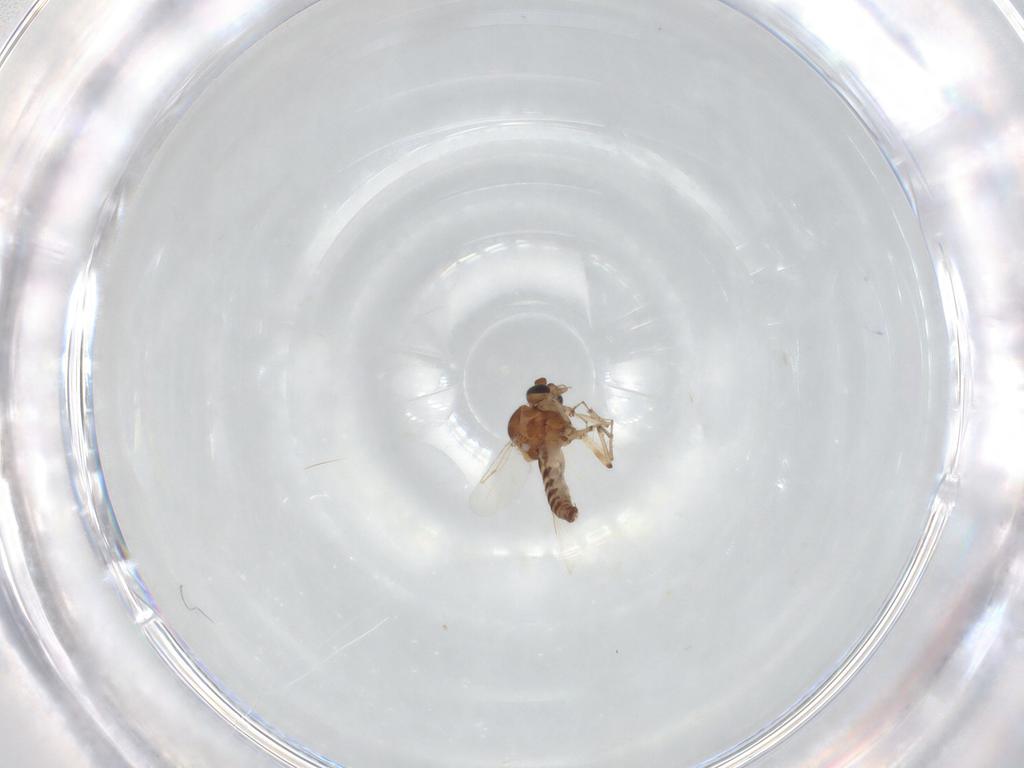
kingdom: Animalia
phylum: Arthropoda
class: Insecta
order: Diptera
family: Ceratopogonidae
